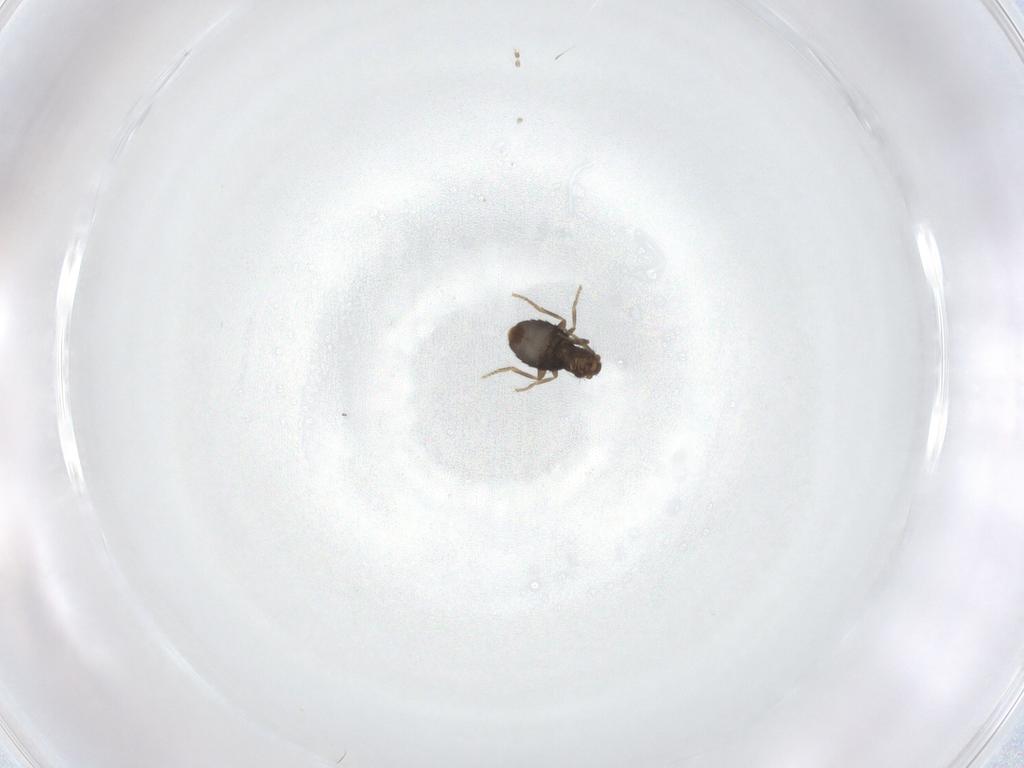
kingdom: Animalia
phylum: Arthropoda
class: Insecta
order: Diptera
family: Psychodidae
